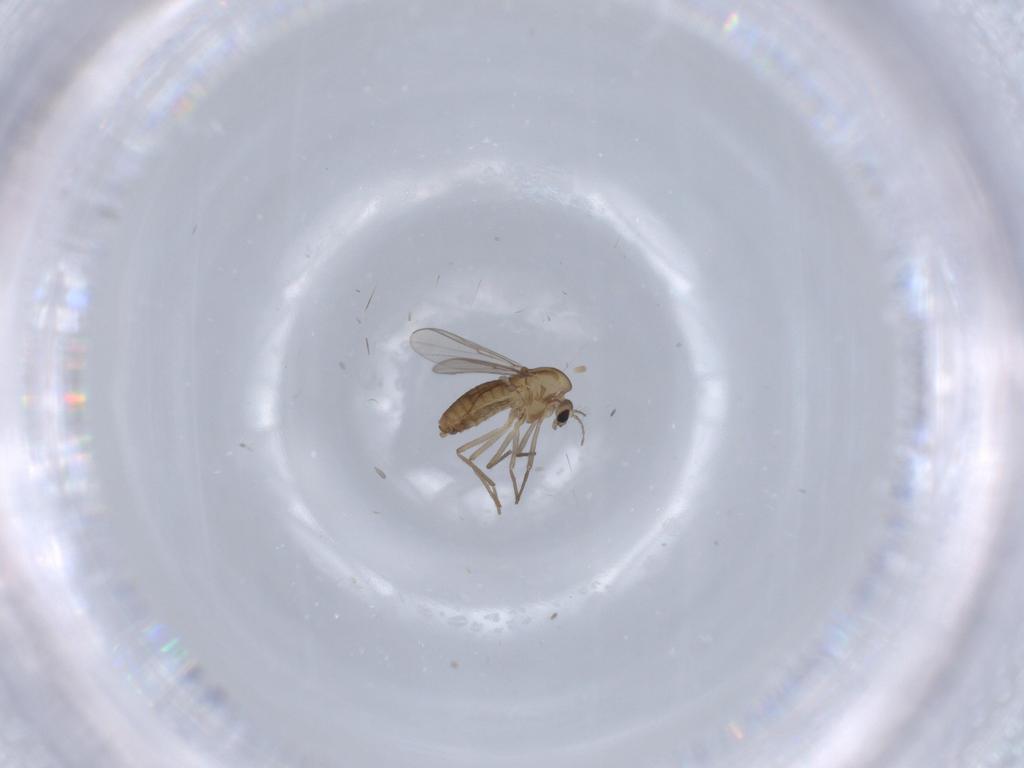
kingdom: Animalia
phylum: Arthropoda
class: Insecta
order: Diptera
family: Chironomidae
